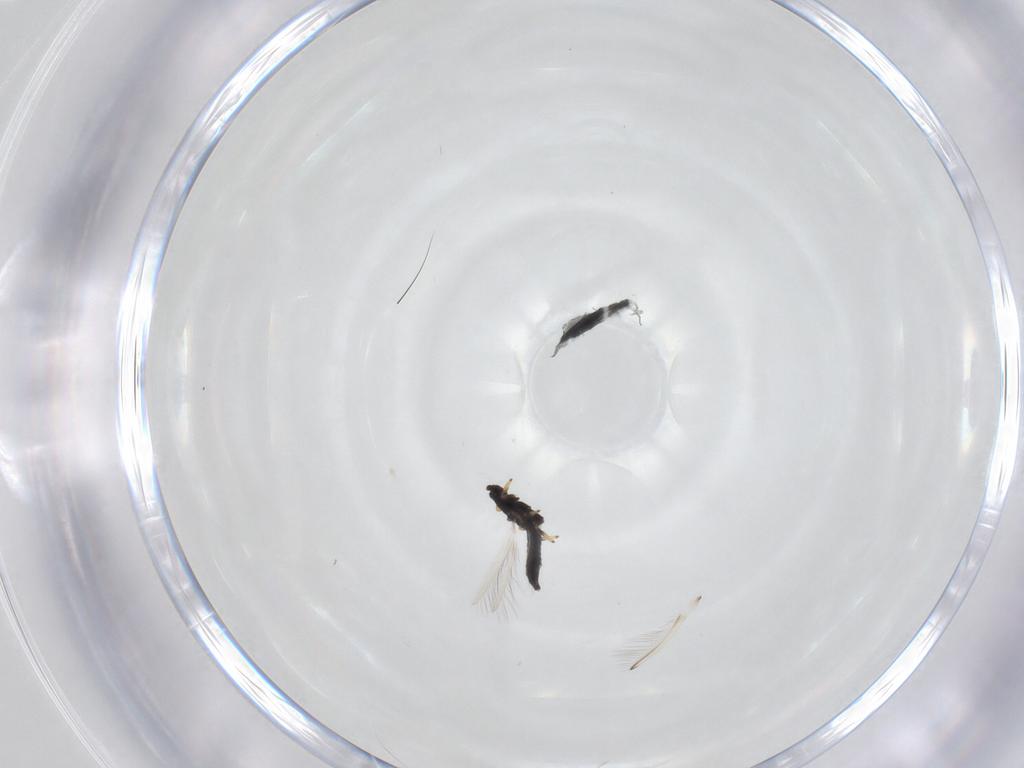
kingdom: Animalia
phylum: Arthropoda
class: Insecta
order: Thysanoptera
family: Thripidae
